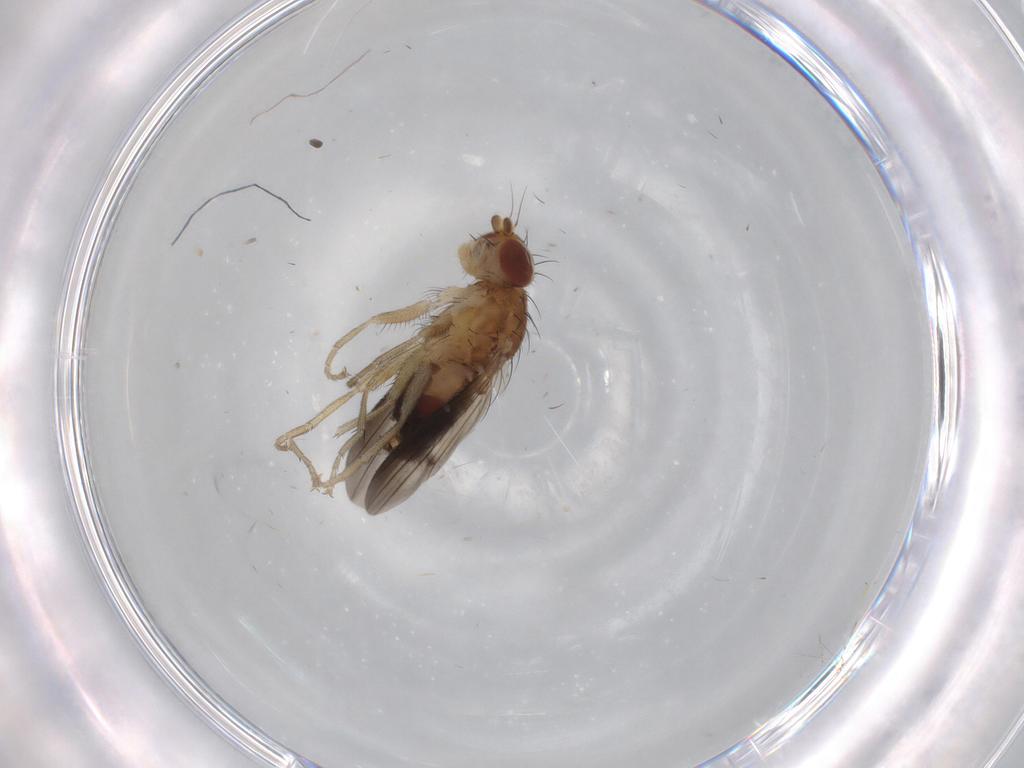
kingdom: Animalia
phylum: Arthropoda
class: Insecta
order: Diptera
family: Heleomyzidae
